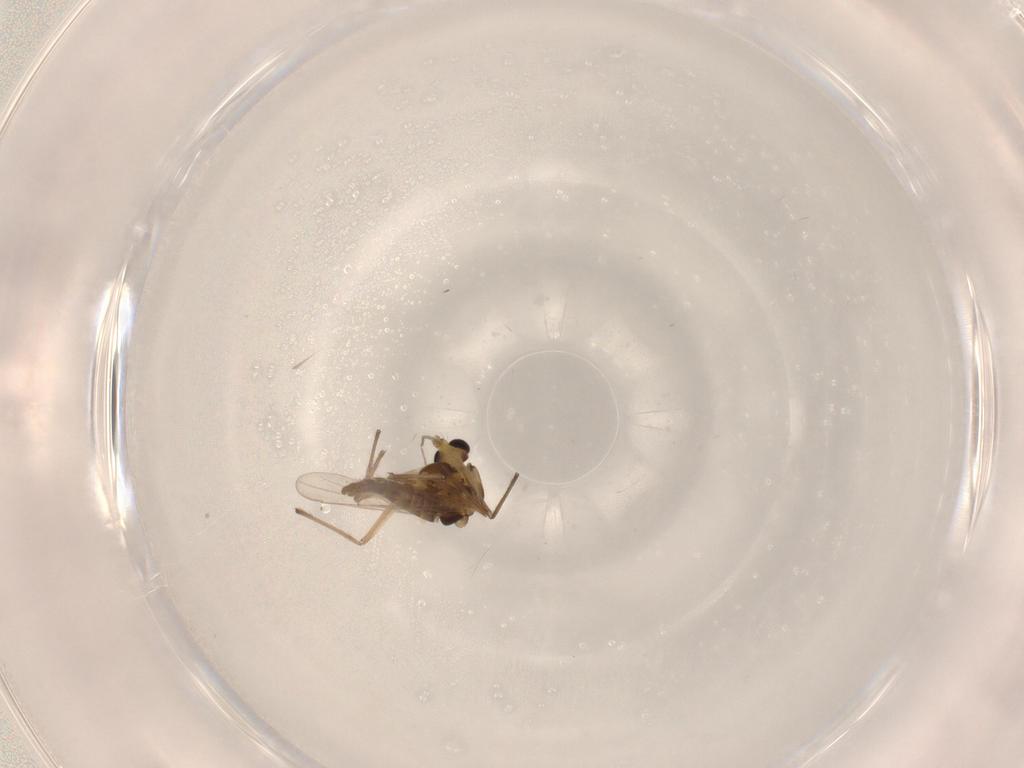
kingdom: Animalia
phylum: Arthropoda
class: Insecta
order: Diptera
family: Chironomidae
